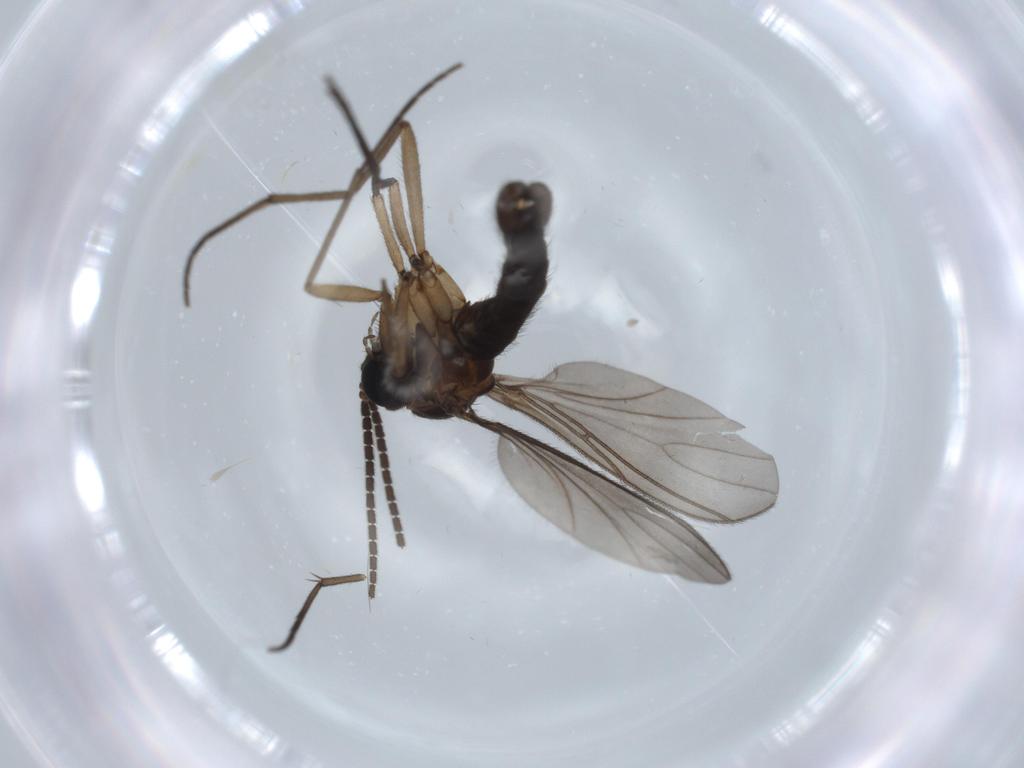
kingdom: Animalia
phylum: Arthropoda
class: Insecta
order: Diptera
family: Sciaridae
